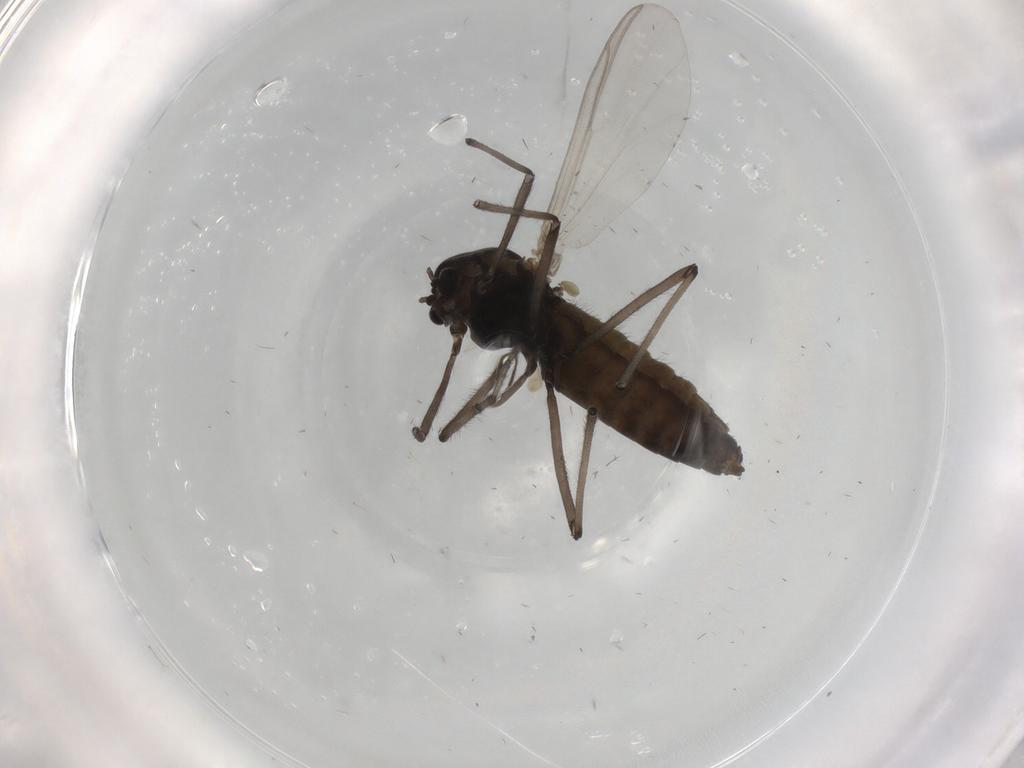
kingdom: Animalia
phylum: Arthropoda
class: Insecta
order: Diptera
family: Chironomidae
